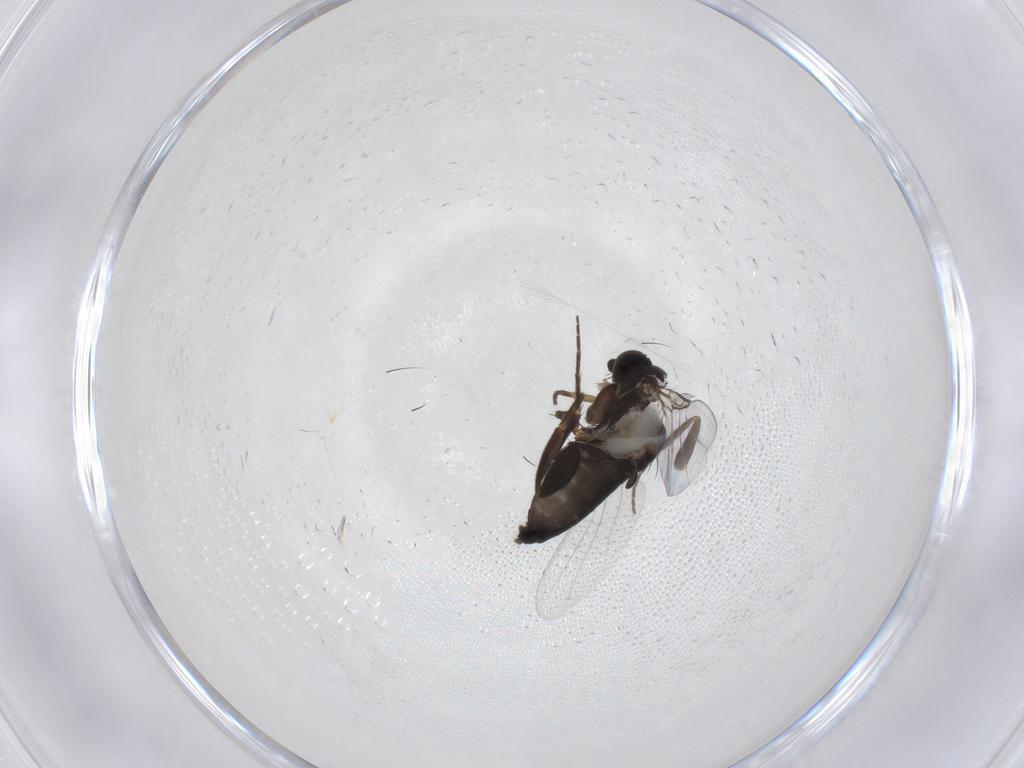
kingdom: Animalia
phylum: Arthropoda
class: Insecta
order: Diptera
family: Phoridae
